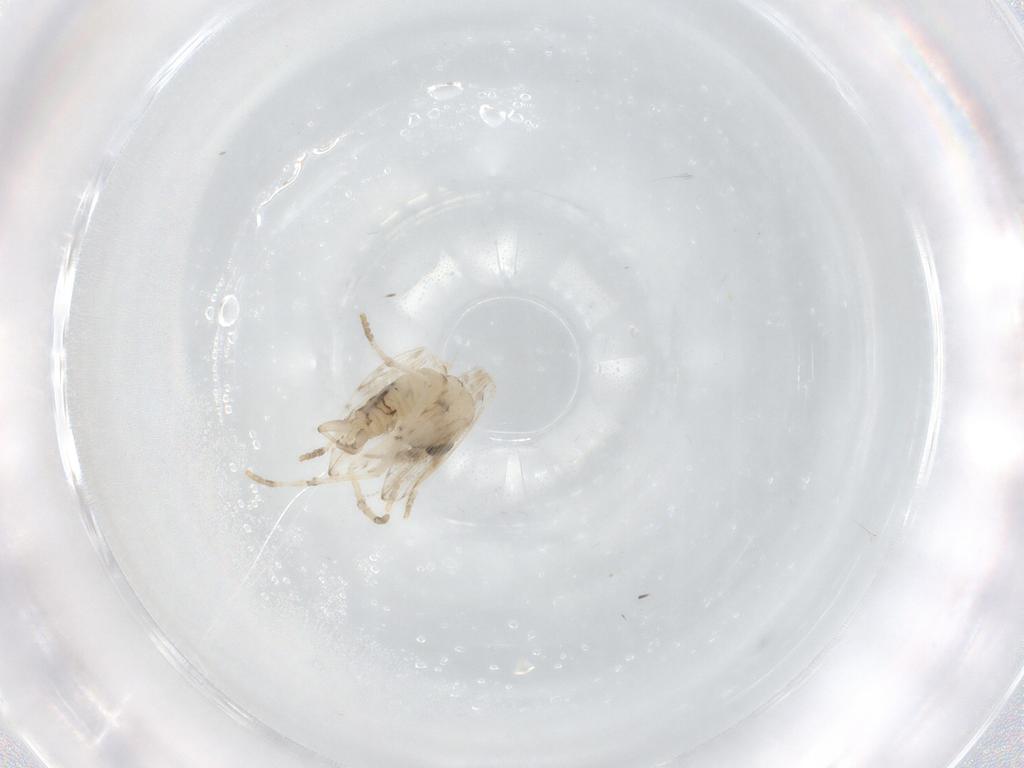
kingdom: Animalia
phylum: Arthropoda
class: Insecta
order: Diptera
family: Psychodidae
